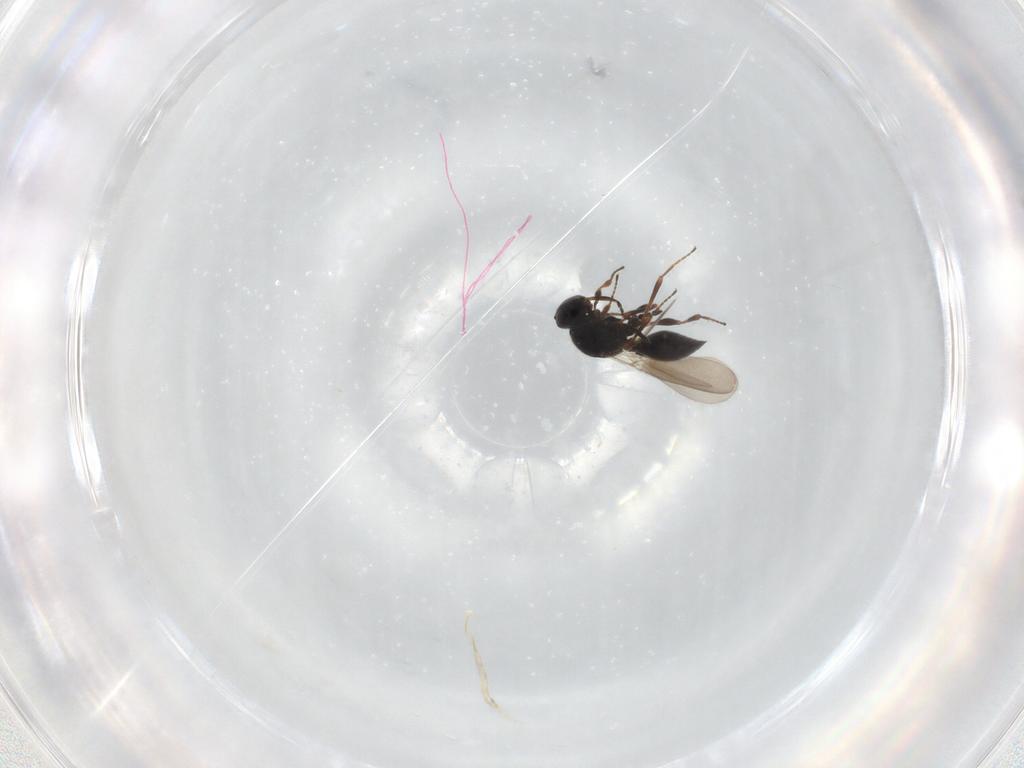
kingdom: Animalia
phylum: Arthropoda
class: Insecta
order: Hymenoptera
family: Platygastridae
